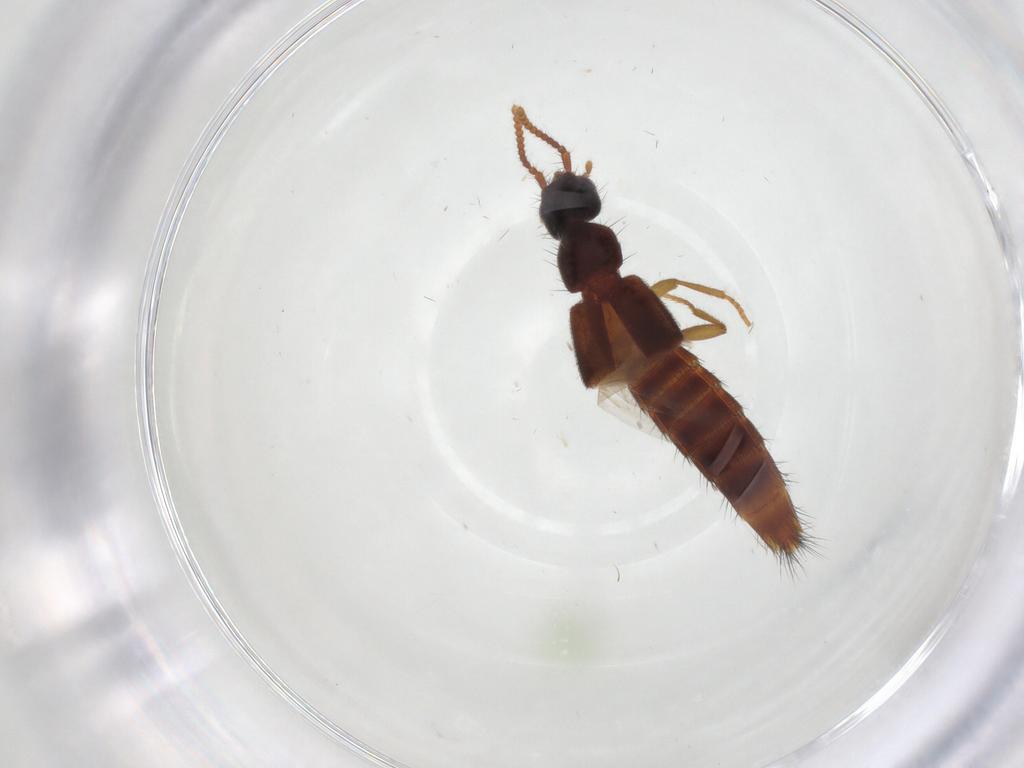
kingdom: Animalia
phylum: Arthropoda
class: Insecta
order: Coleoptera
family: Staphylinidae
